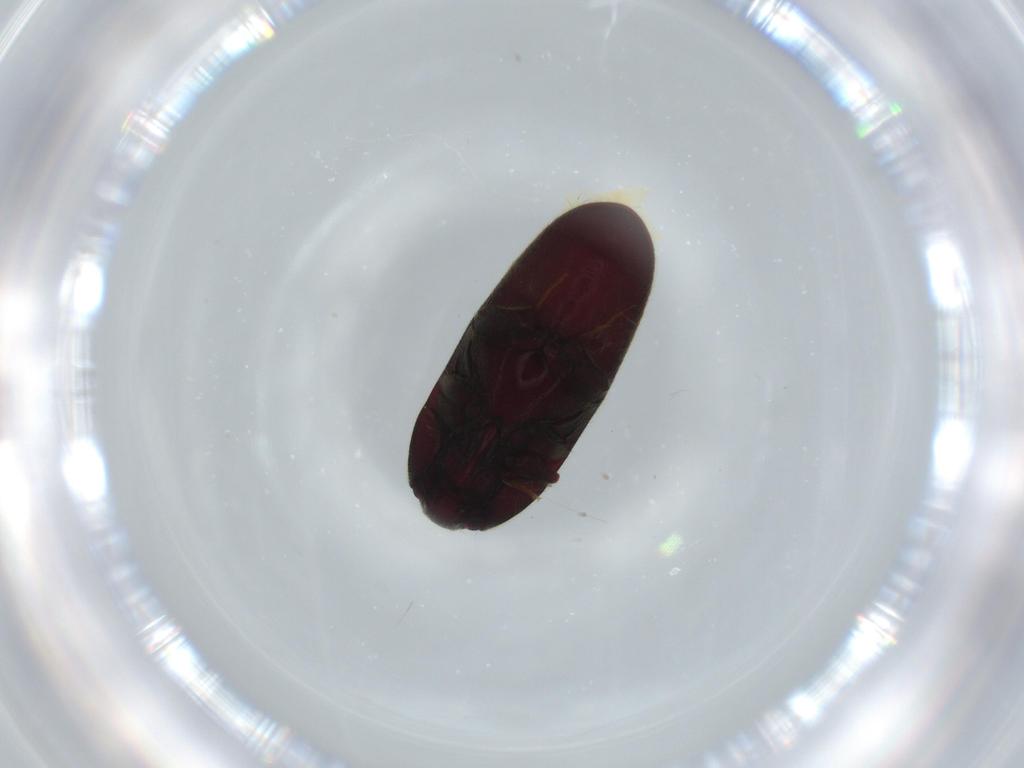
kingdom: Animalia
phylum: Arthropoda
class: Insecta
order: Coleoptera
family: Throscidae
